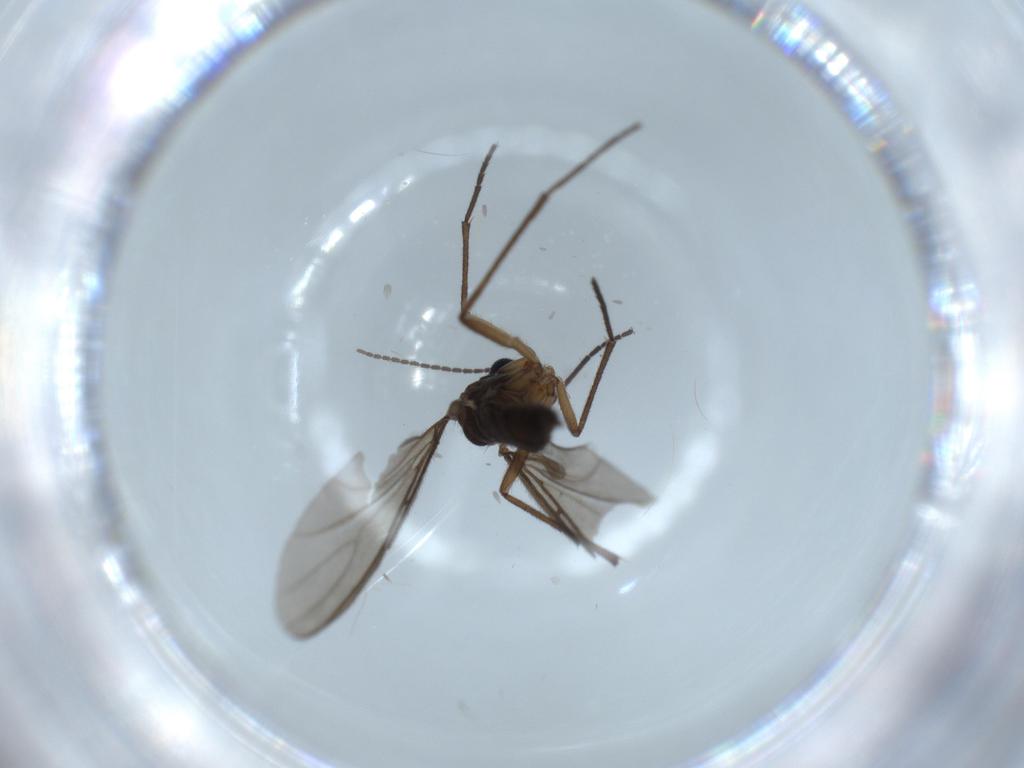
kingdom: Animalia
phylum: Arthropoda
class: Insecta
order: Diptera
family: Sciaridae
